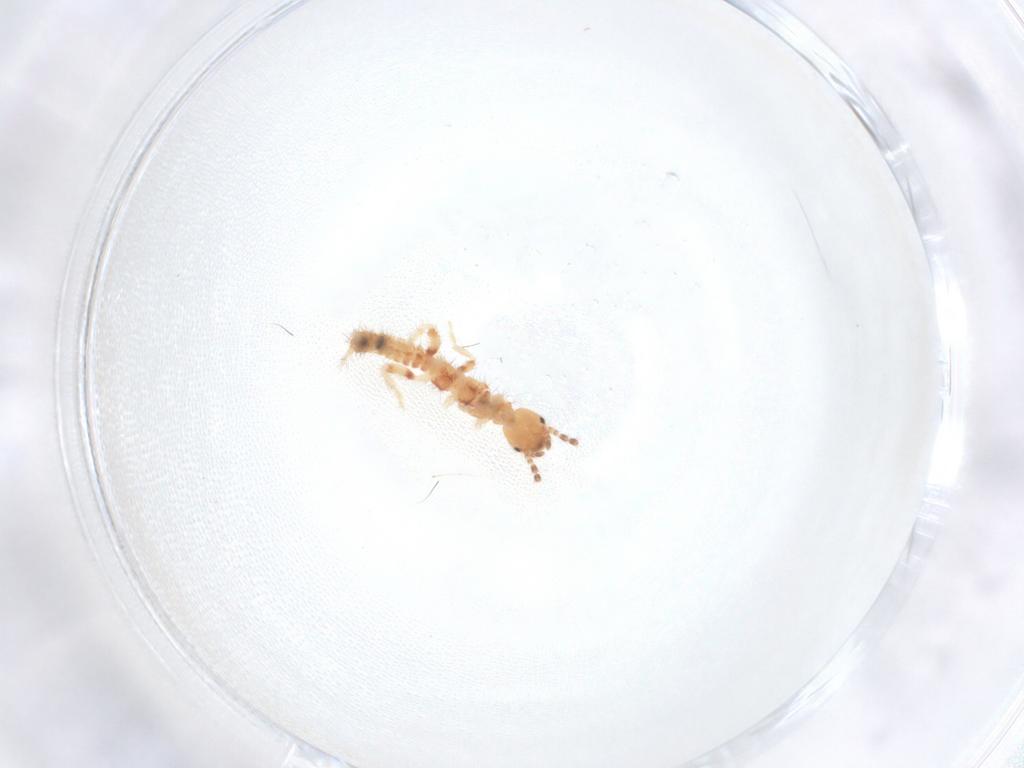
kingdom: Animalia
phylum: Arthropoda
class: Insecta
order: Embioptera
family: Anisembiidae
